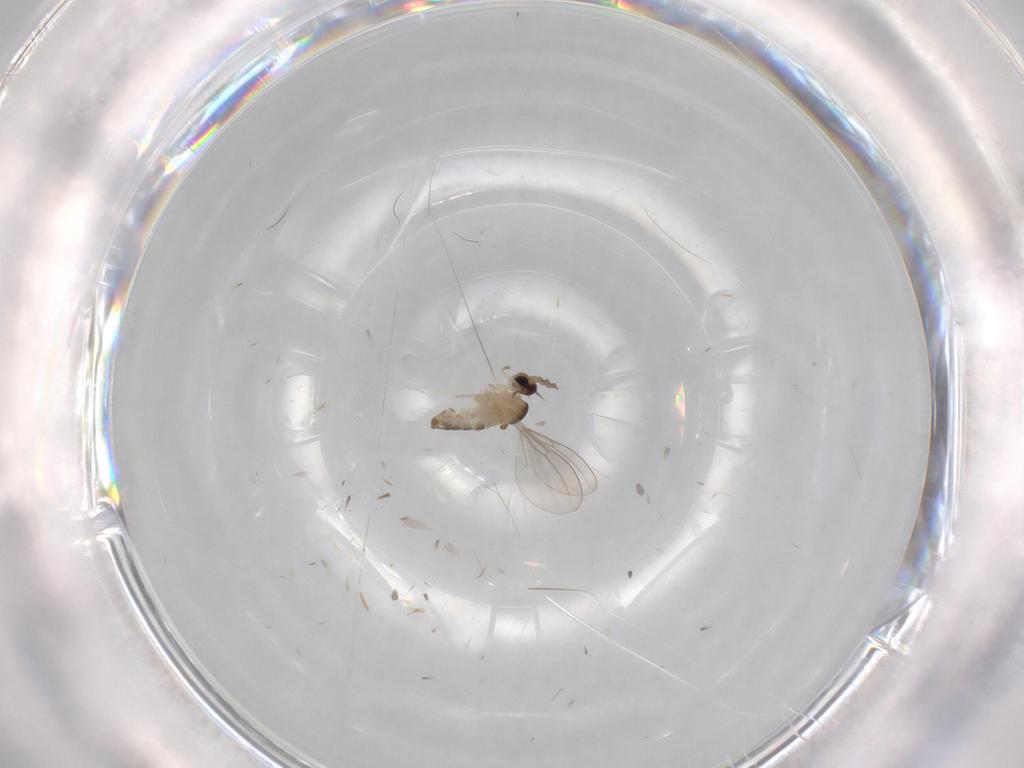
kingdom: Animalia
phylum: Arthropoda
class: Insecta
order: Diptera
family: Cecidomyiidae
